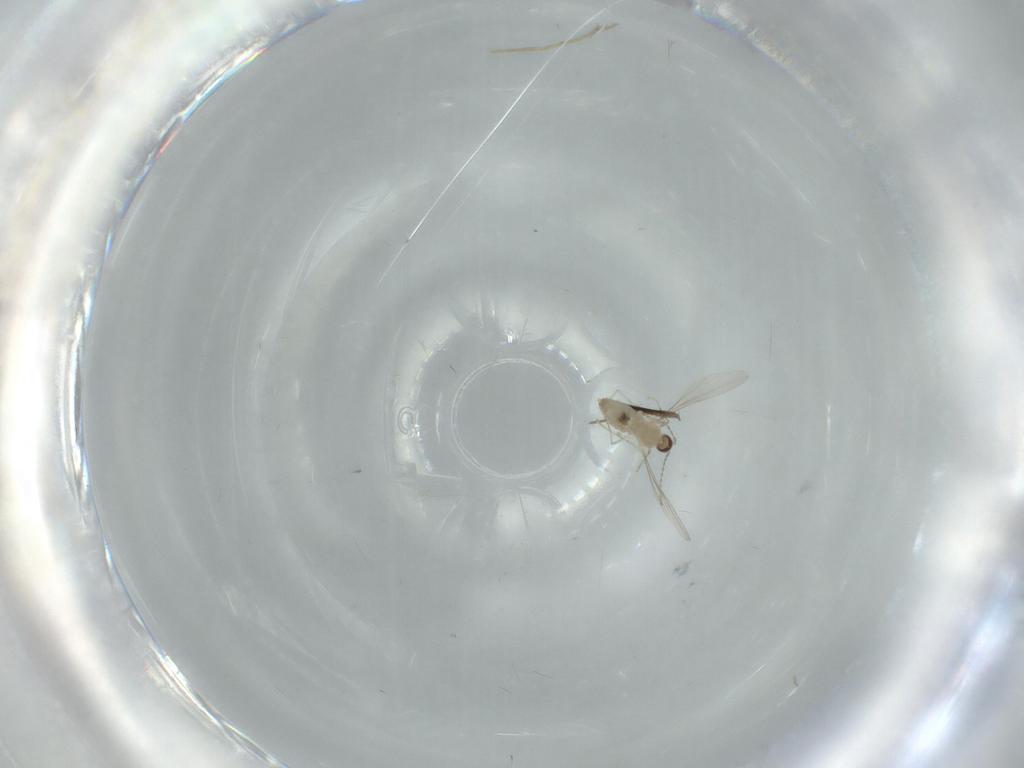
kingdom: Animalia
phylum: Arthropoda
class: Insecta
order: Diptera
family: Cecidomyiidae
